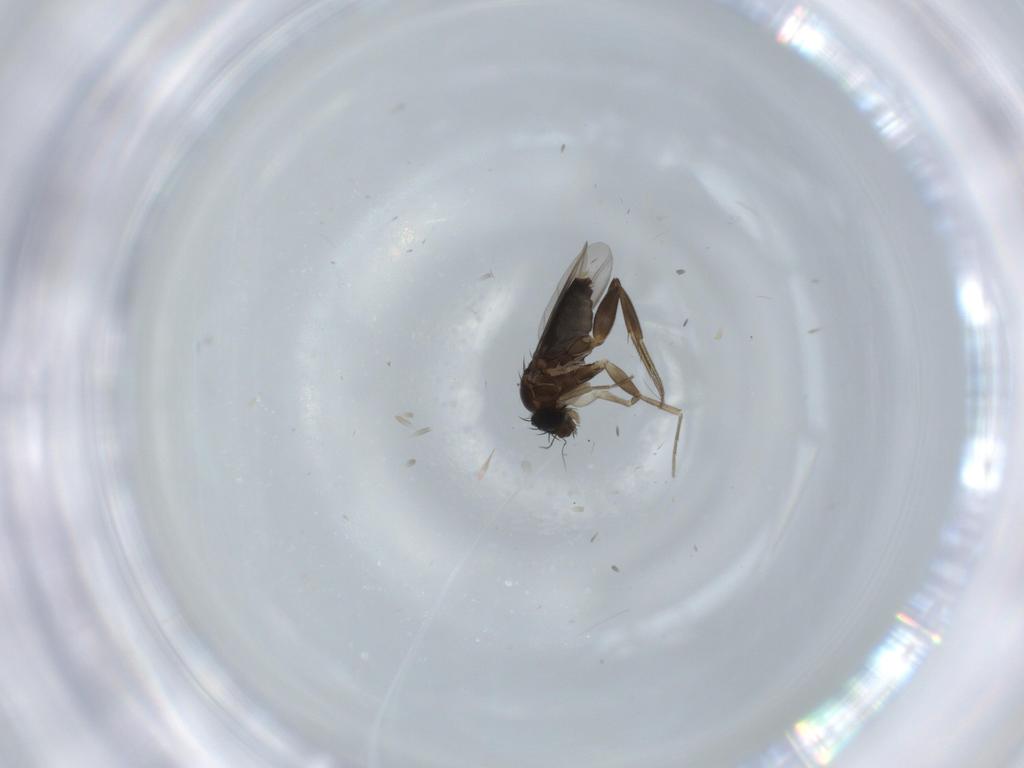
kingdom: Animalia
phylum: Arthropoda
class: Insecta
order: Diptera
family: Phoridae
